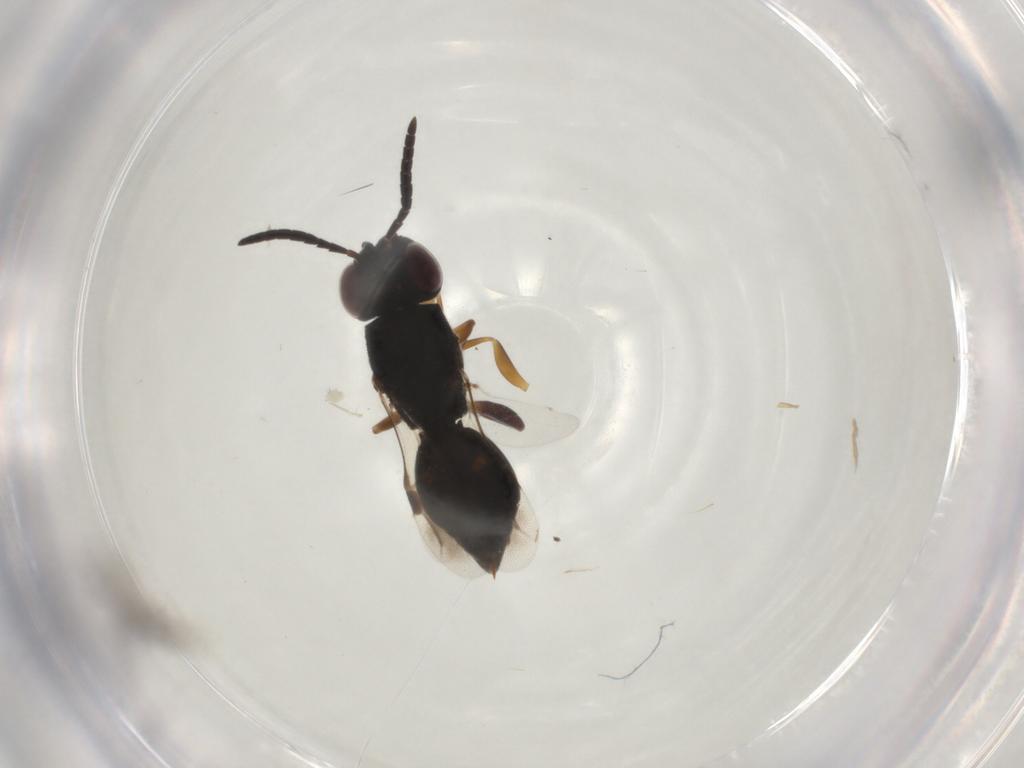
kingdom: Animalia
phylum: Arthropoda
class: Insecta
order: Hymenoptera
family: Megaspilidae
